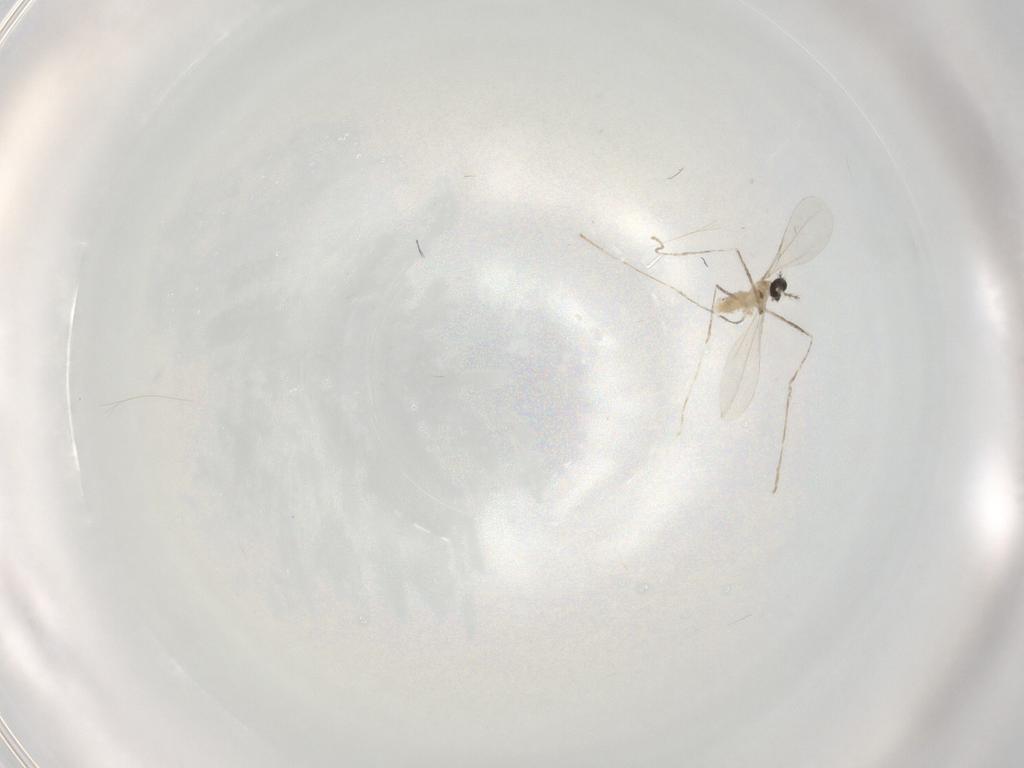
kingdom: Animalia
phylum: Arthropoda
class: Insecta
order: Diptera
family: Cecidomyiidae
